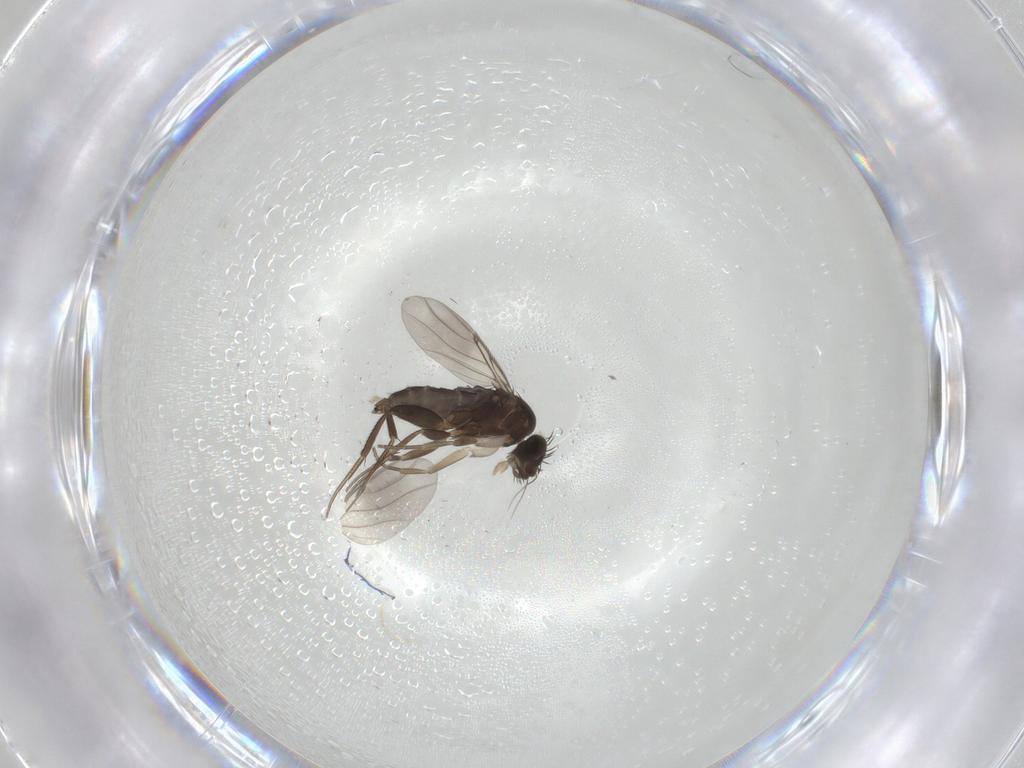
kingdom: Animalia
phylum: Arthropoda
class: Insecta
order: Diptera
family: Phoridae
